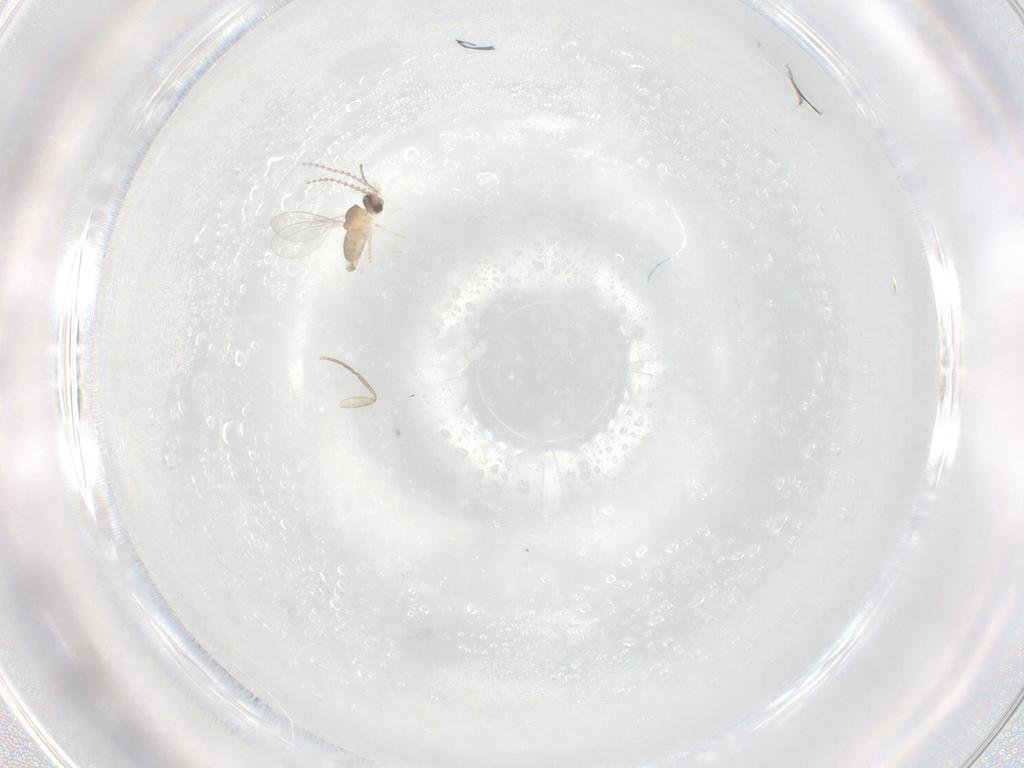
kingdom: Animalia
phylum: Arthropoda
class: Insecta
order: Diptera
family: Cecidomyiidae
